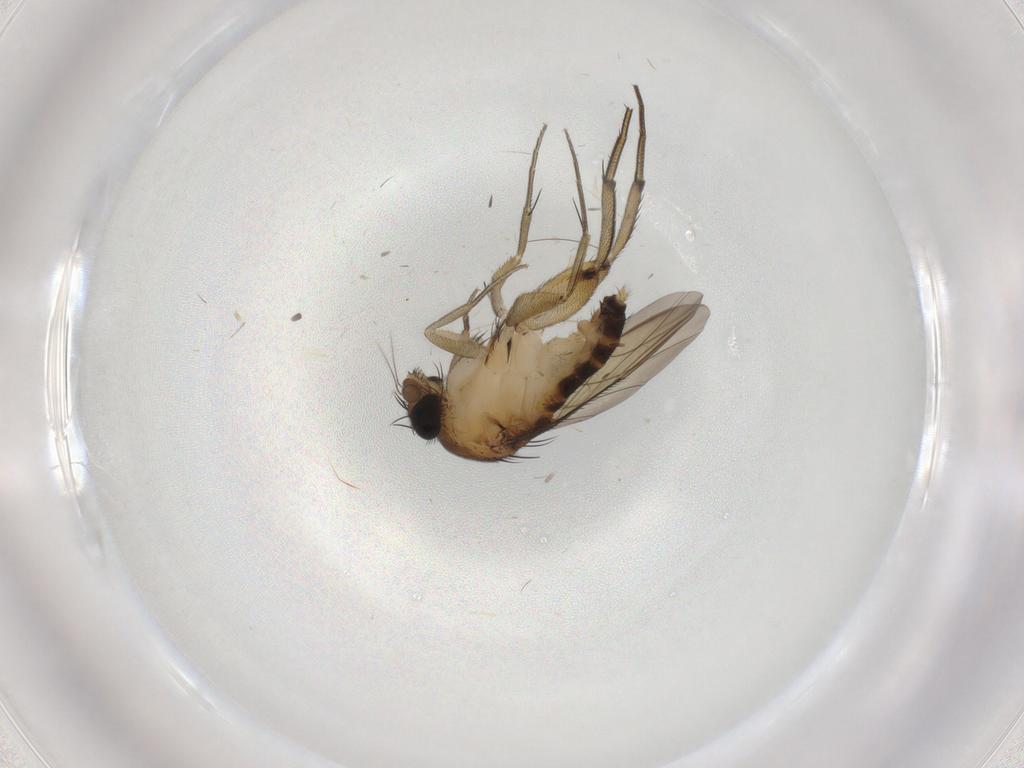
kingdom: Animalia
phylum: Arthropoda
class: Insecta
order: Diptera
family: Phoridae
